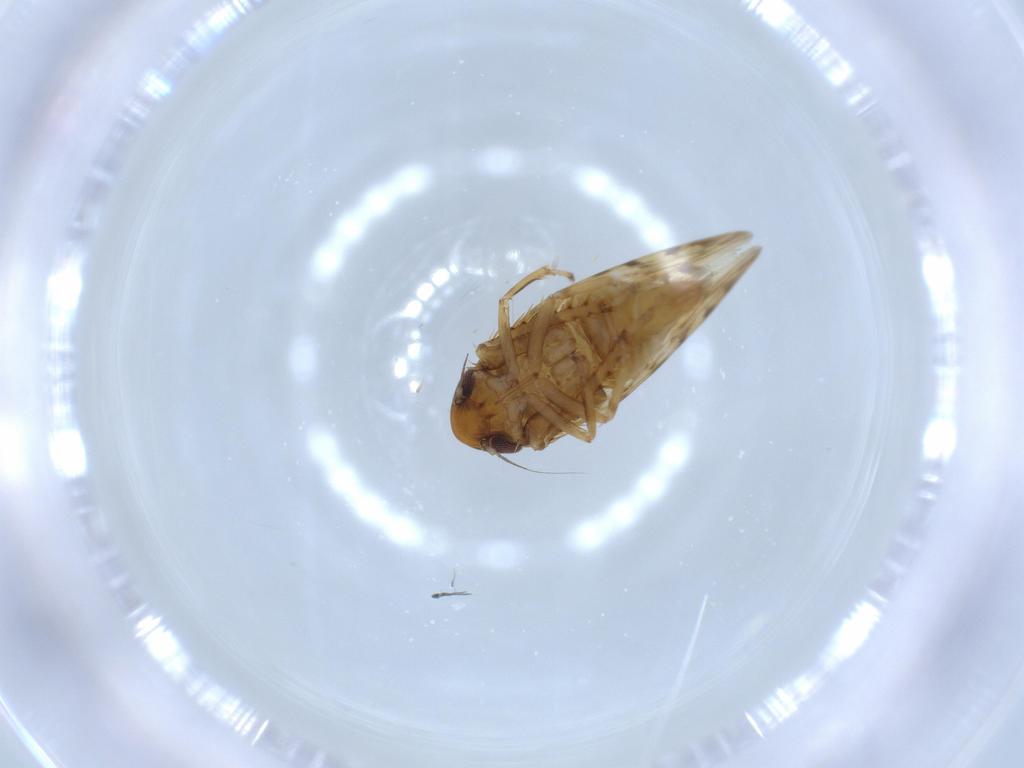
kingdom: Animalia
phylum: Arthropoda
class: Insecta
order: Hemiptera
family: Cicadellidae
